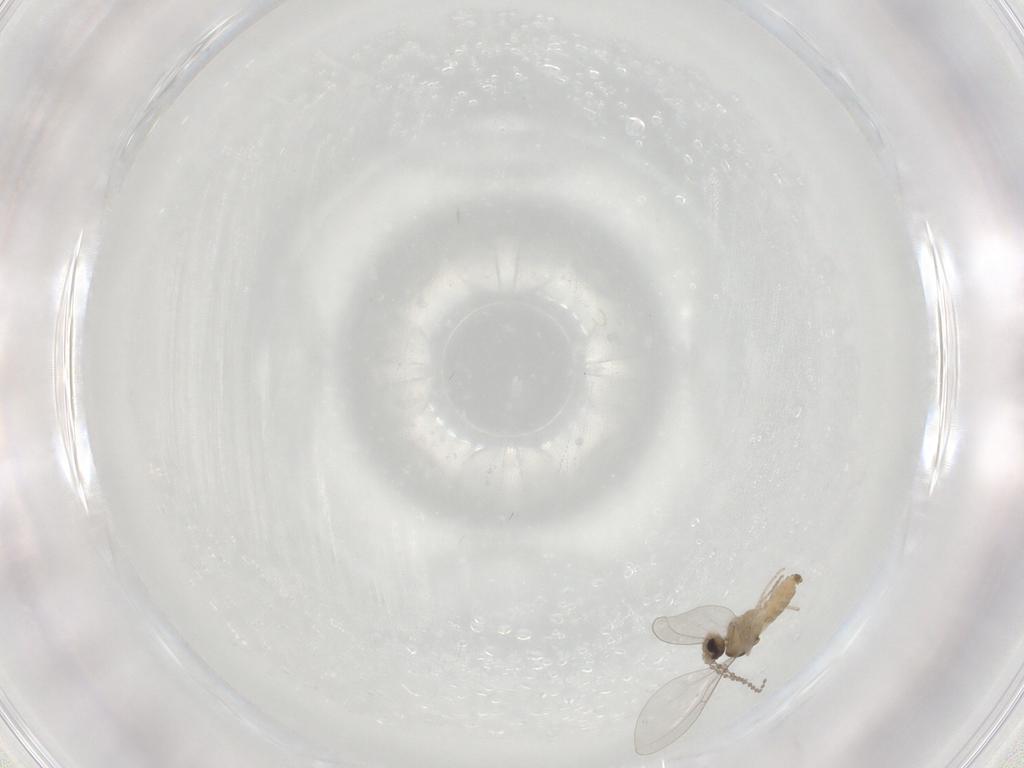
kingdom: Animalia
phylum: Arthropoda
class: Insecta
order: Diptera
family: Cecidomyiidae
